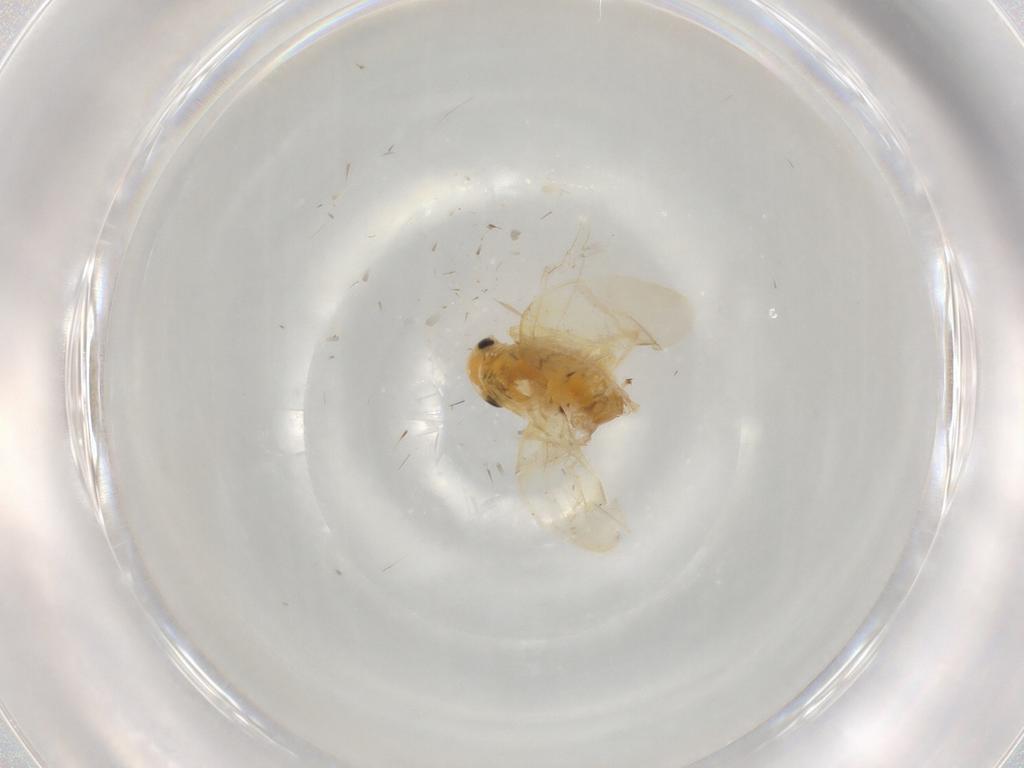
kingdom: Animalia
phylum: Arthropoda
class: Insecta
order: Hemiptera
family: Cicadellidae
